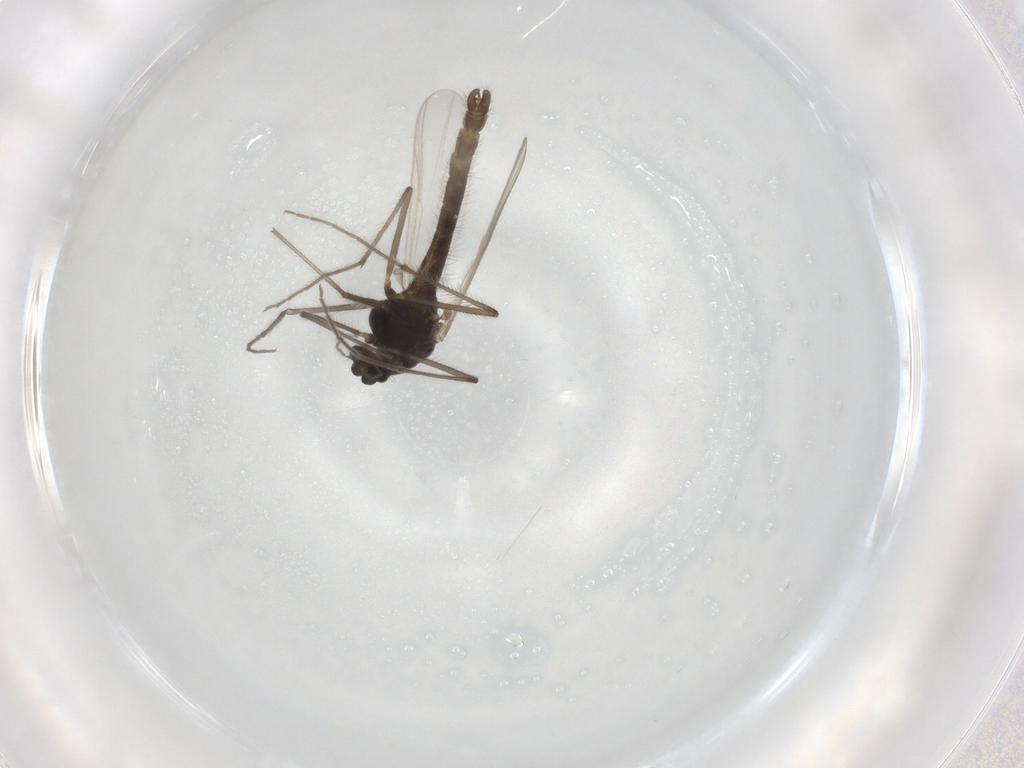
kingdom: Animalia
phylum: Arthropoda
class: Insecta
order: Diptera
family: Chironomidae
